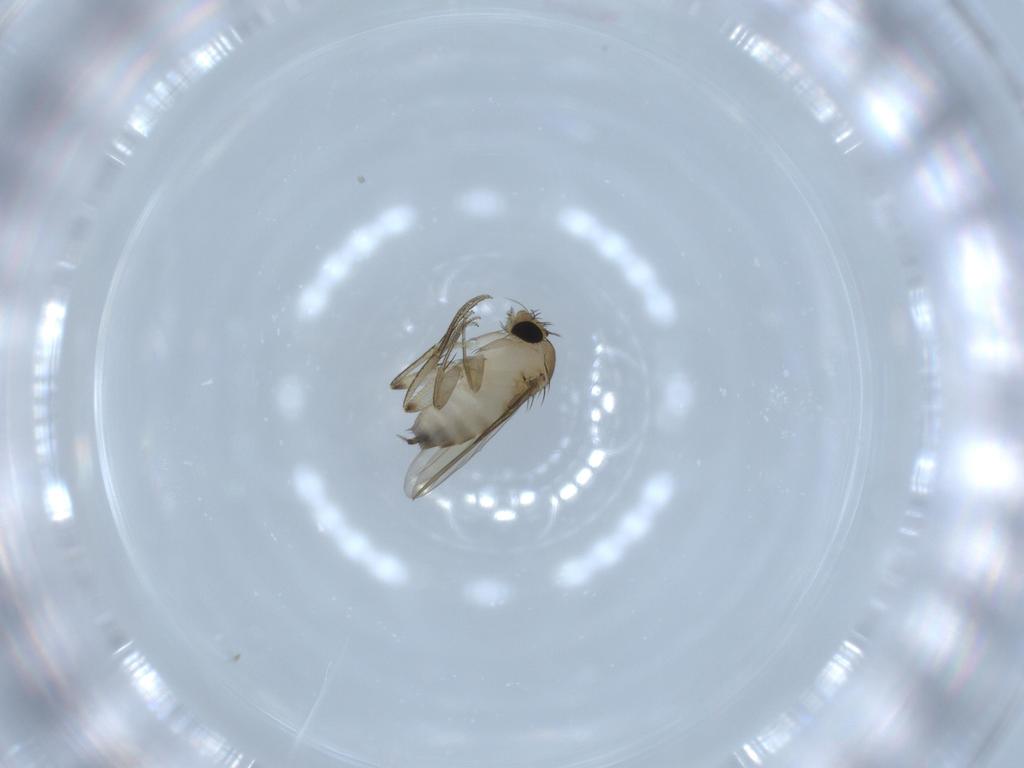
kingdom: Animalia
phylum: Arthropoda
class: Insecta
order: Diptera
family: Phoridae
